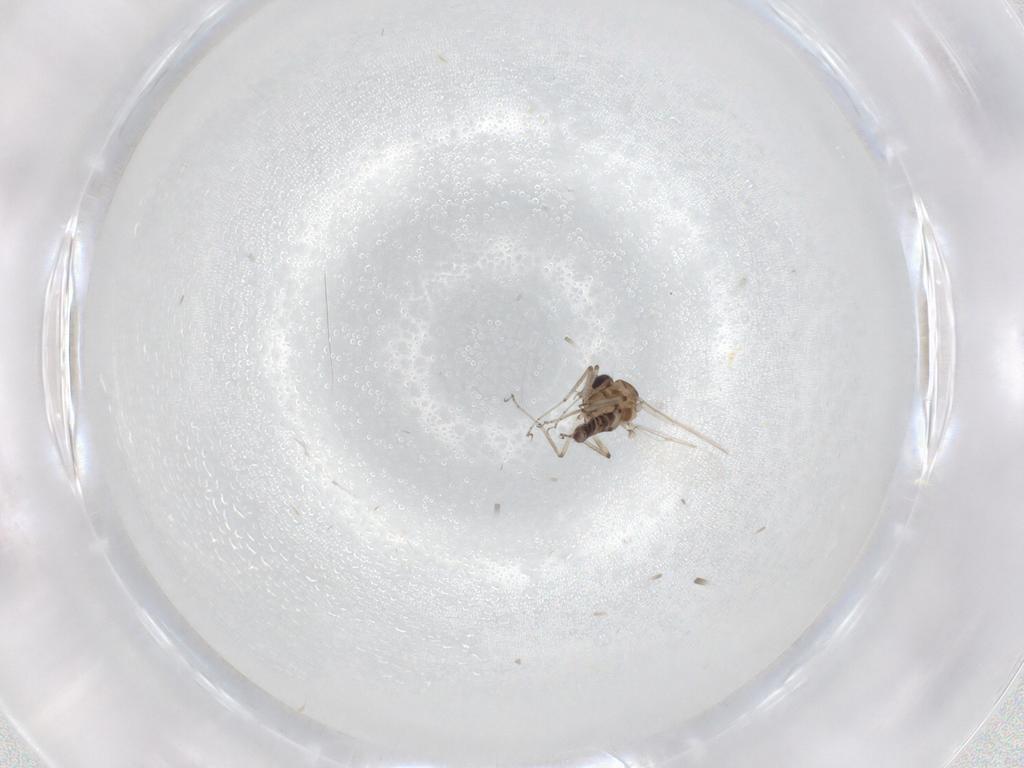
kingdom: Animalia
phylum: Arthropoda
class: Insecta
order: Diptera
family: Ceratopogonidae
